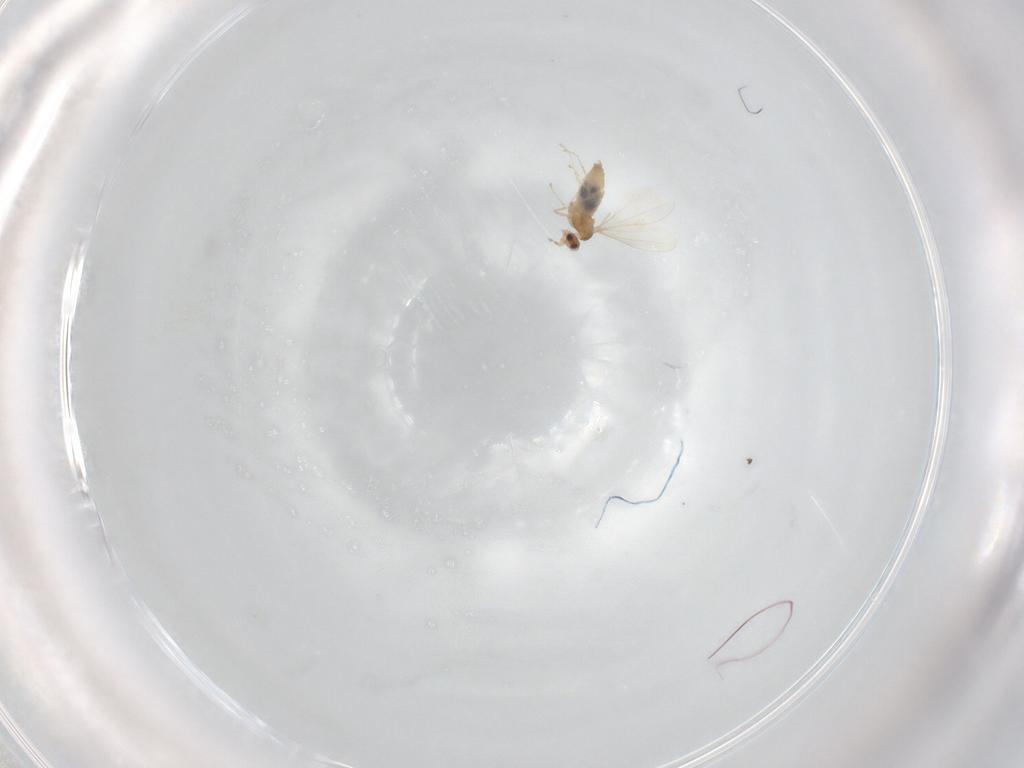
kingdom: Animalia
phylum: Arthropoda
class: Insecta
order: Diptera
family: Cecidomyiidae
